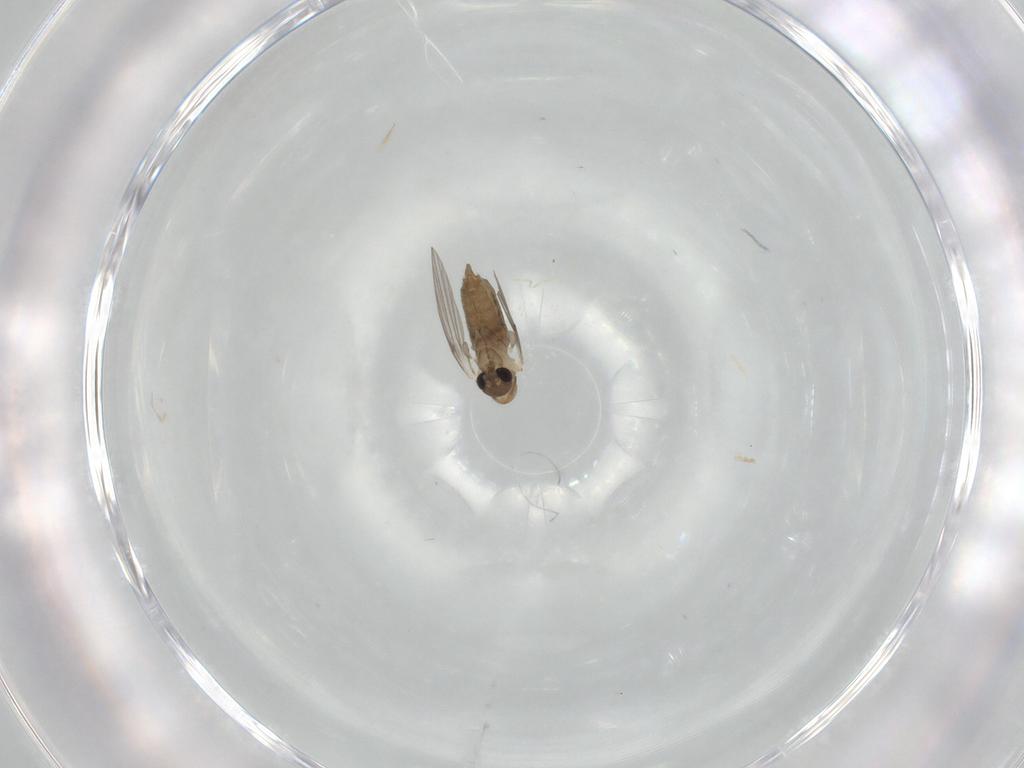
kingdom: Animalia
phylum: Arthropoda
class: Insecta
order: Diptera
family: Psychodidae
